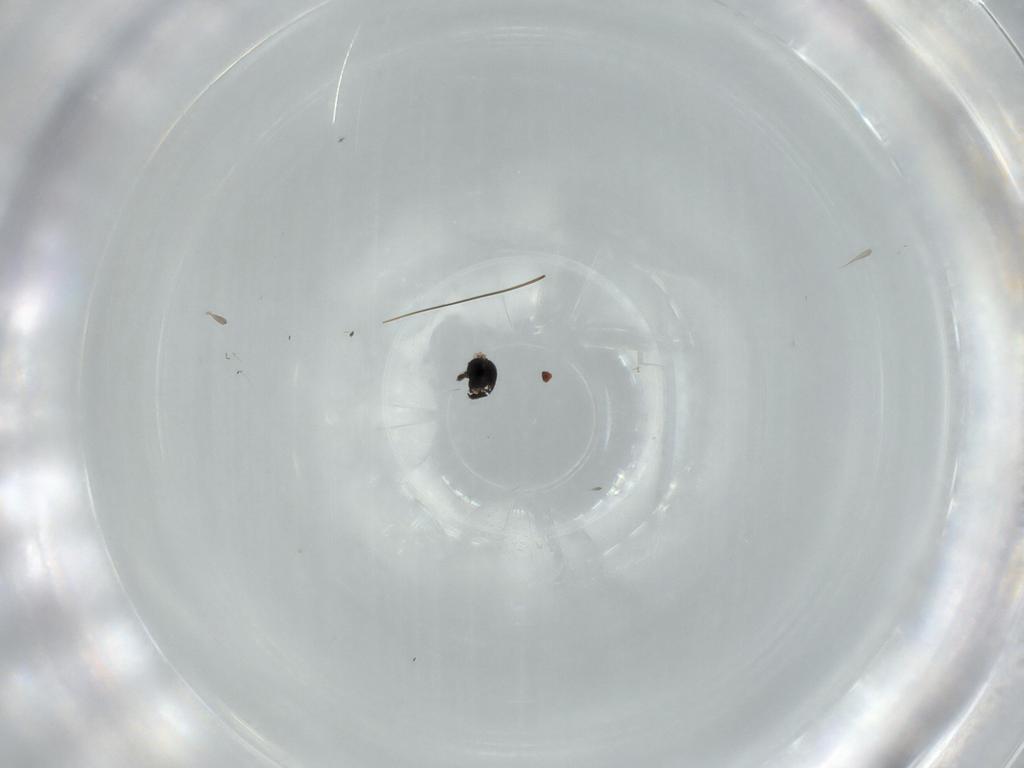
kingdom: Animalia
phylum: Arthropoda
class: Insecta
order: Diptera
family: Sciaridae
